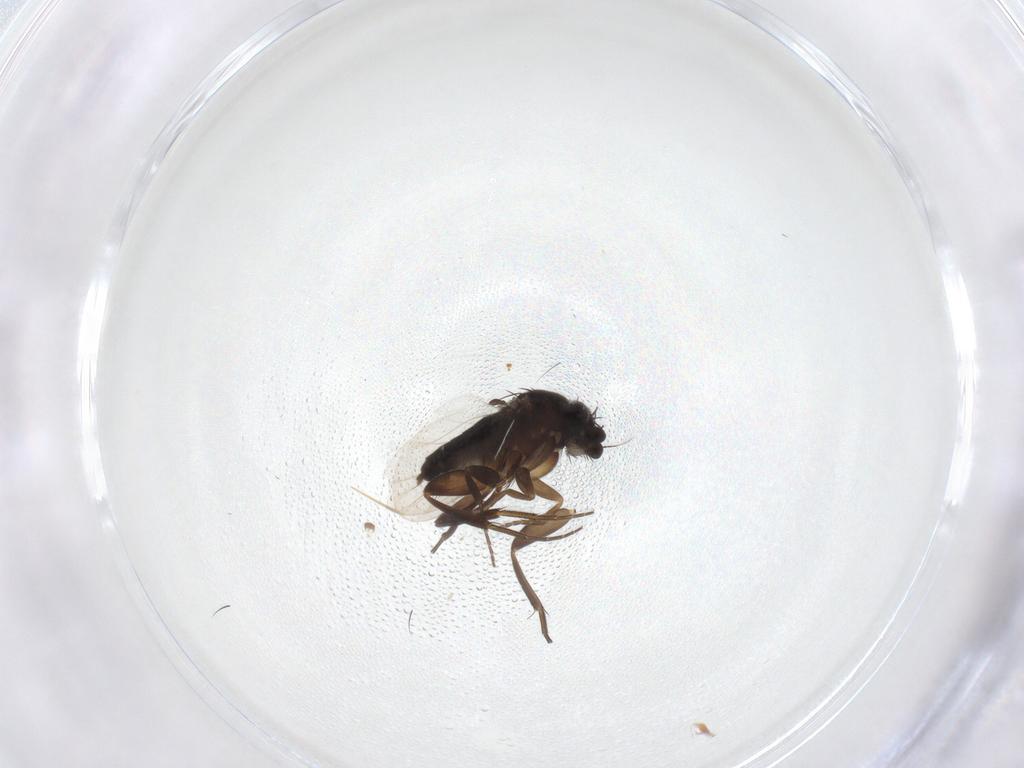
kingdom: Animalia
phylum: Arthropoda
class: Insecta
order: Diptera
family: Phoridae
